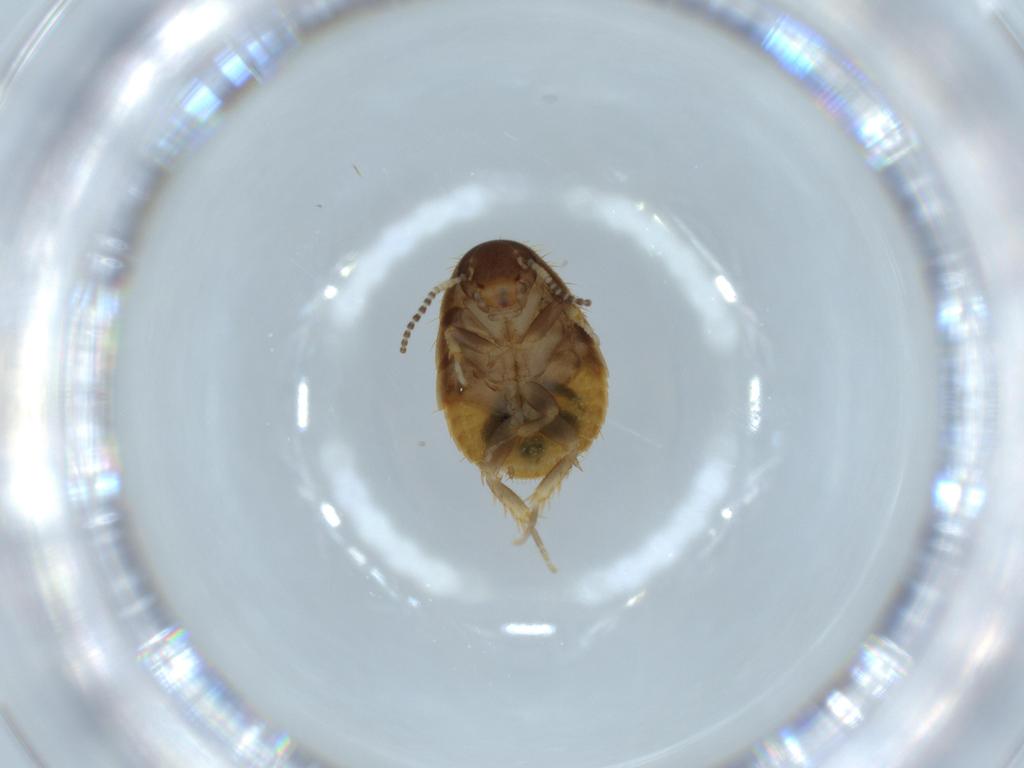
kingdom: Animalia
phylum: Arthropoda
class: Insecta
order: Blattodea
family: Blaberidae
